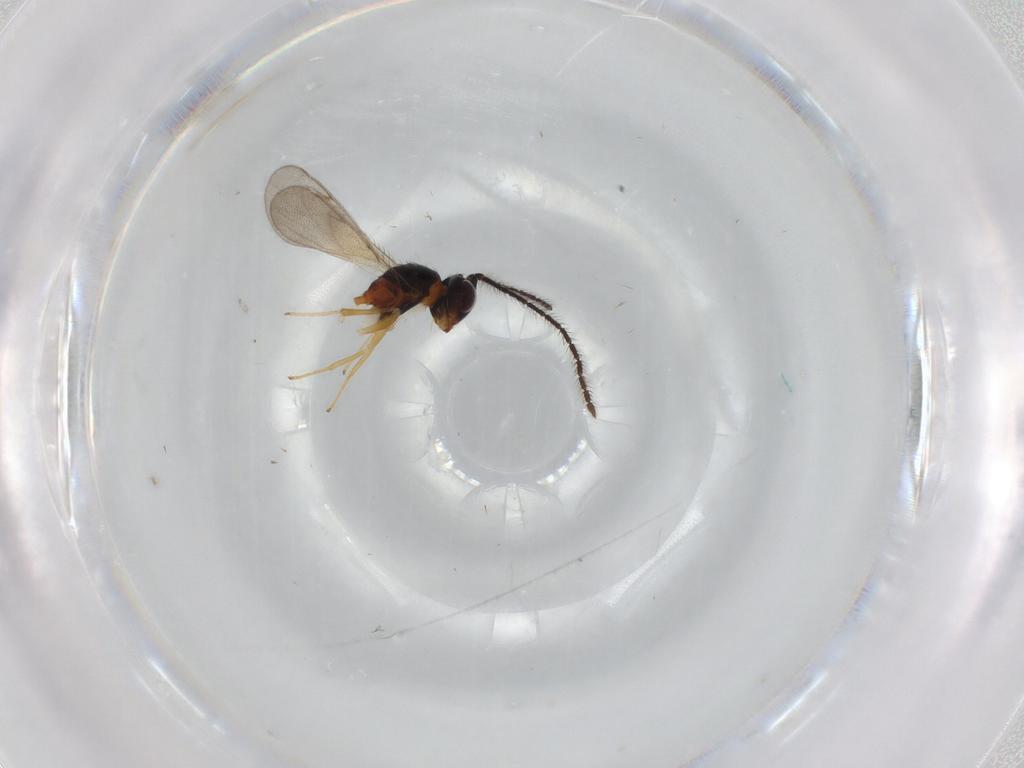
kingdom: Animalia
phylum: Arthropoda
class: Insecta
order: Hymenoptera
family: Diparidae
